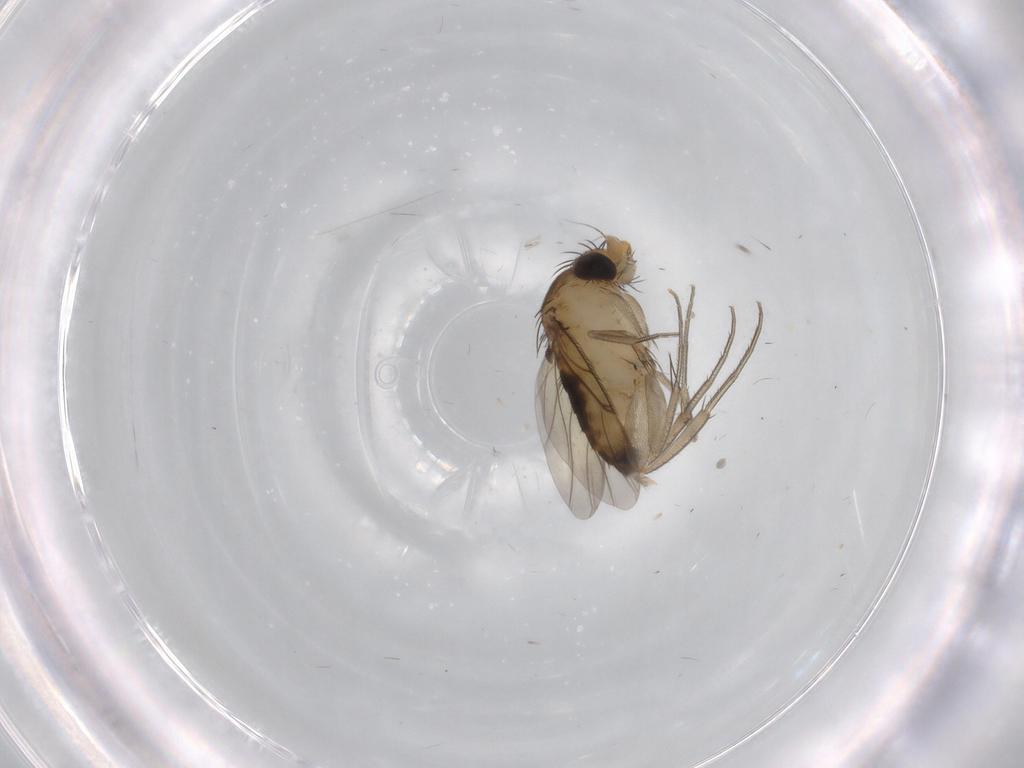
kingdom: Animalia
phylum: Arthropoda
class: Insecta
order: Diptera
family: Phoridae
